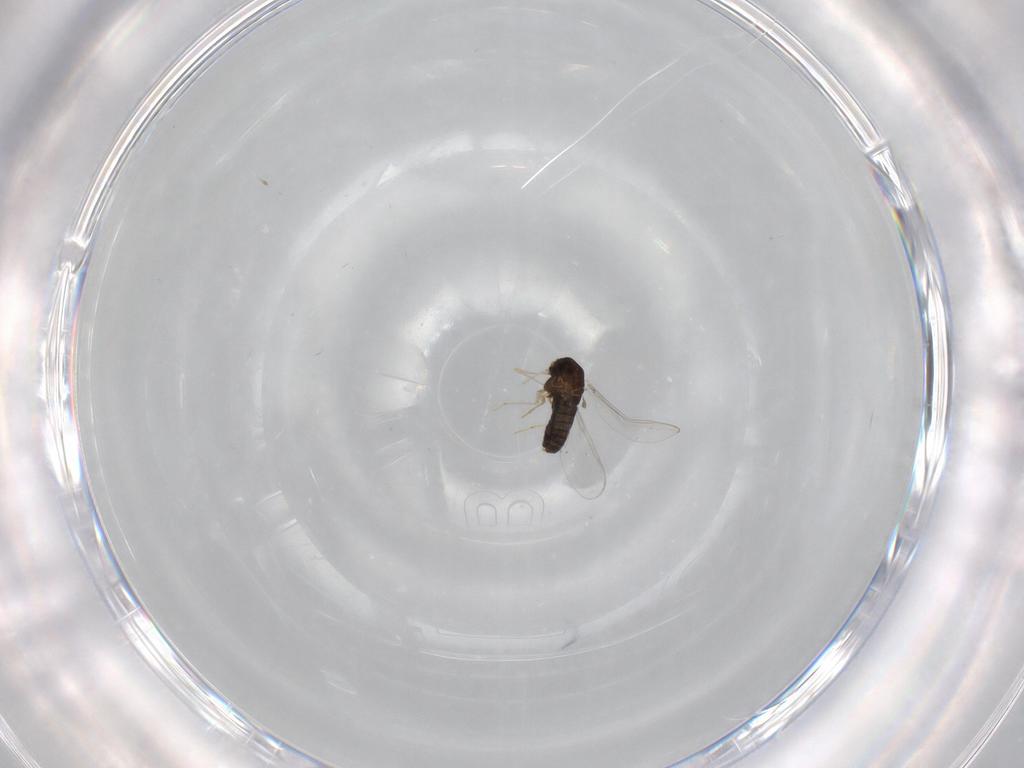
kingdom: Animalia
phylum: Arthropoda
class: Insecta
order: Diptera
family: Chironomidae
